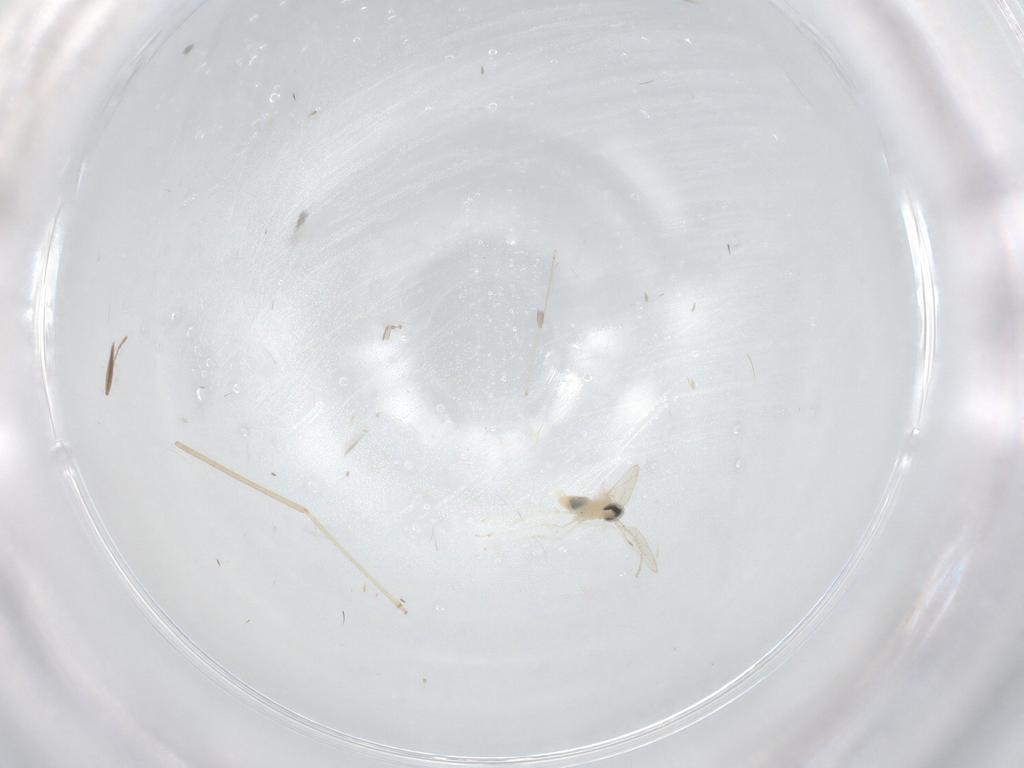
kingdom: Animalia
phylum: Arthropoda
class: Insecta
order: Diptera
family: Cecidomyiidae
